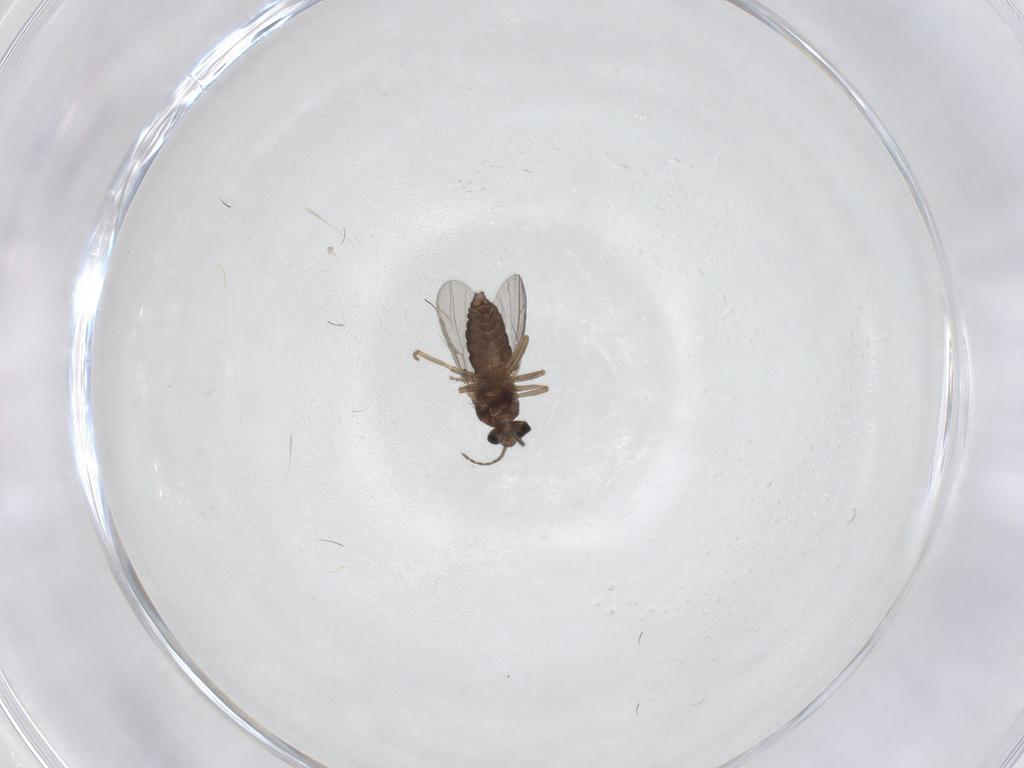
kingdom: Animalia
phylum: Arthropoda
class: Insecta
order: Diptera
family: Ceratopogonidae
